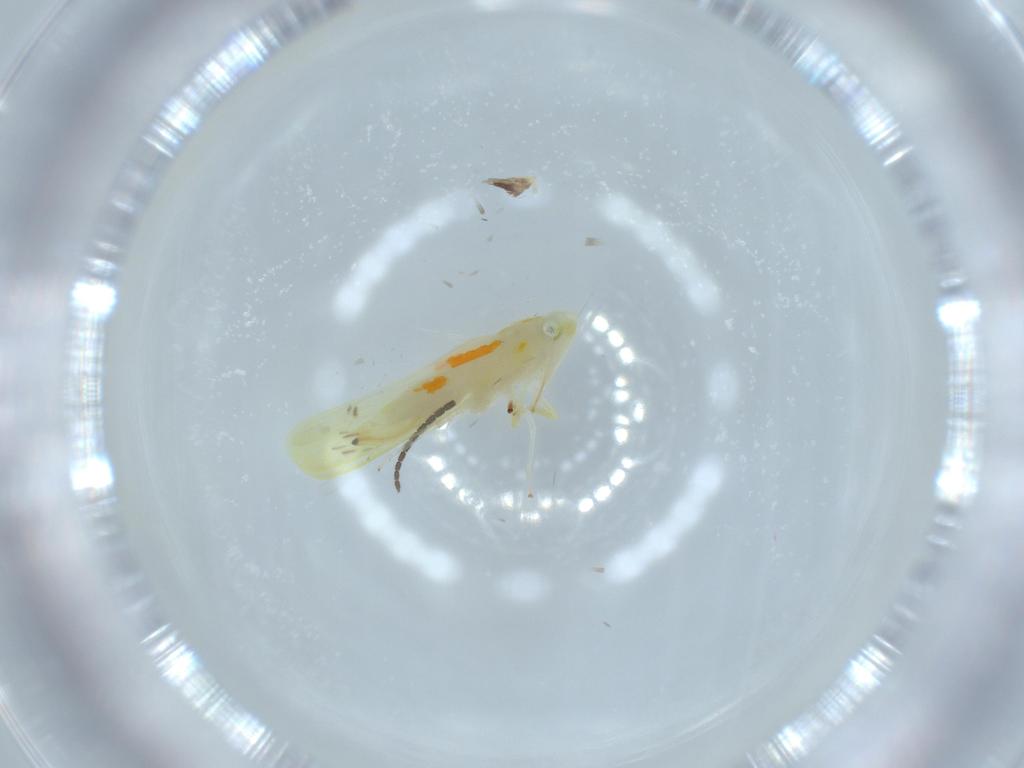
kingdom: Animalia
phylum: Arthropoda
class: Insecta
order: Hemiptera
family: Cicadellidae
